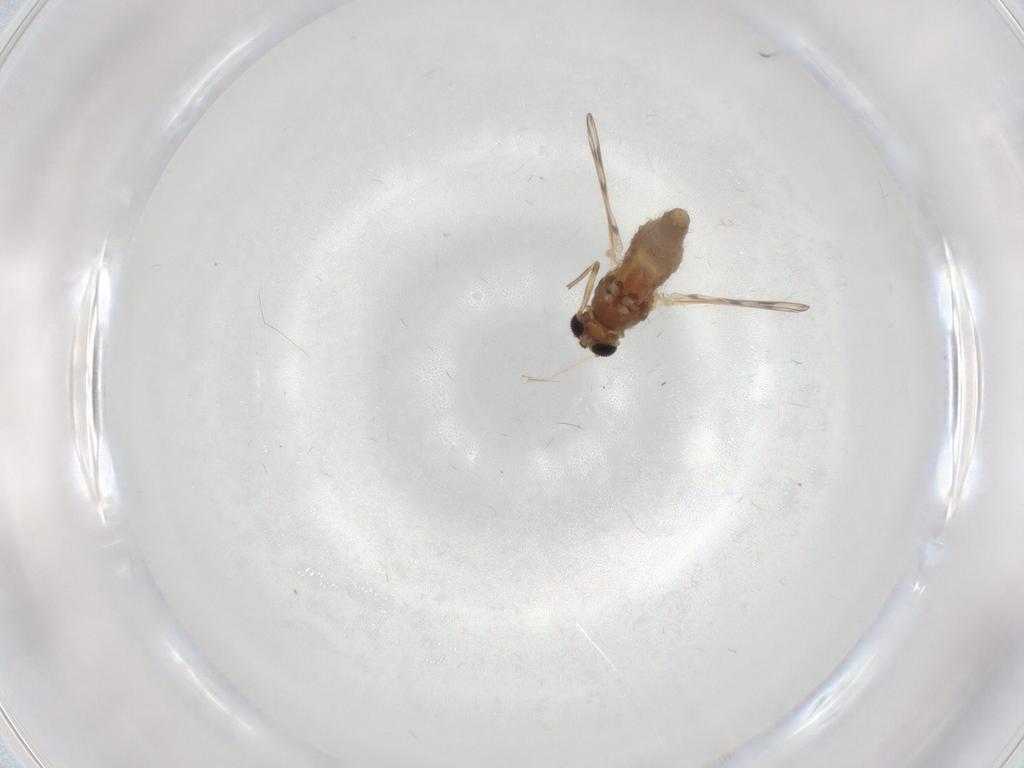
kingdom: Animalia
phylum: Arthropoda
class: Insecta
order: Diptera
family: Chironomidae
